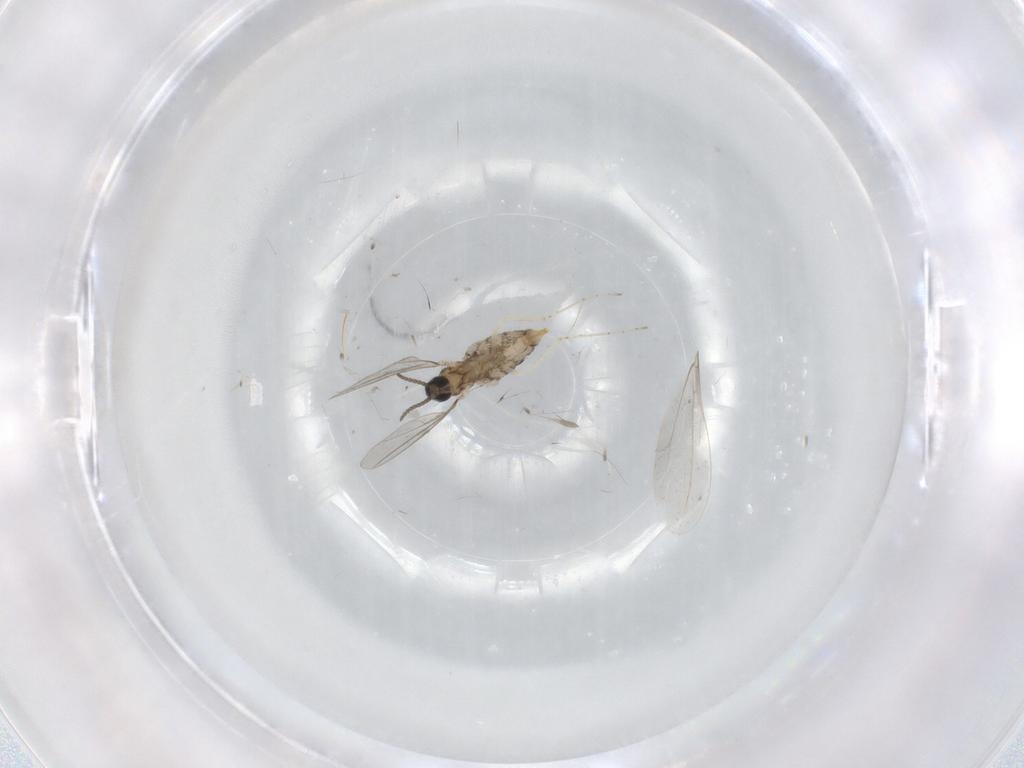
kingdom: Animalia
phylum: Arthropoda
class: Insecta
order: Diptera
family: Cecidomyiidae
